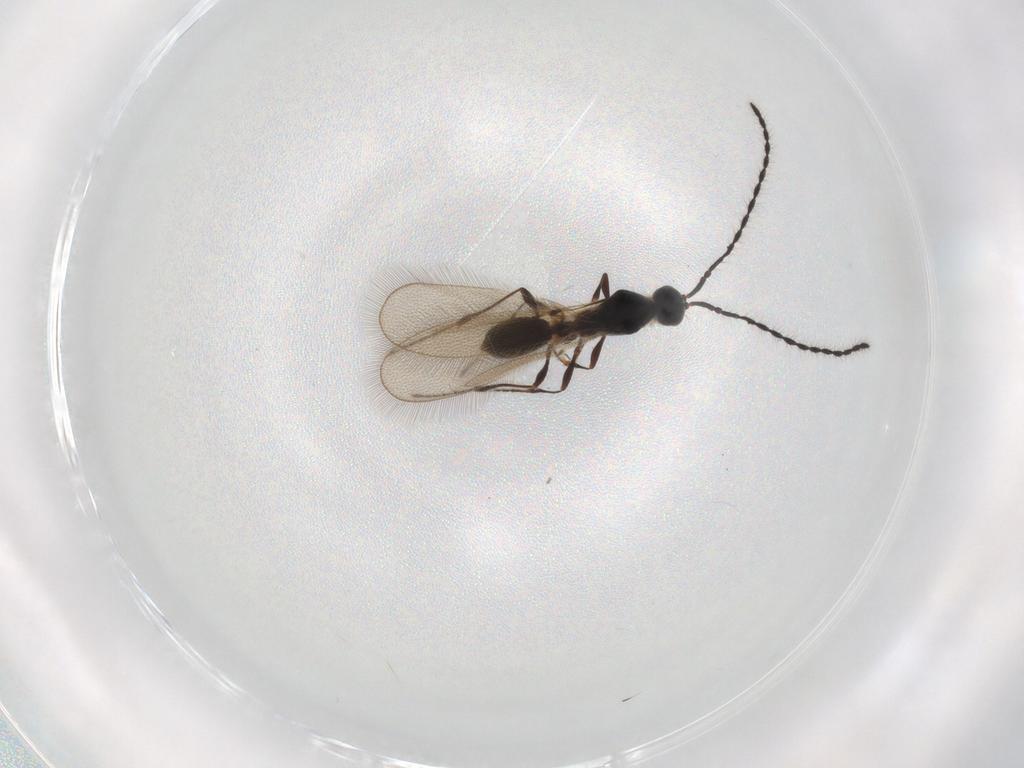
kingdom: Animalia
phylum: Arthropoda
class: Insecta
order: Hymenoptera
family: Diapriidae
